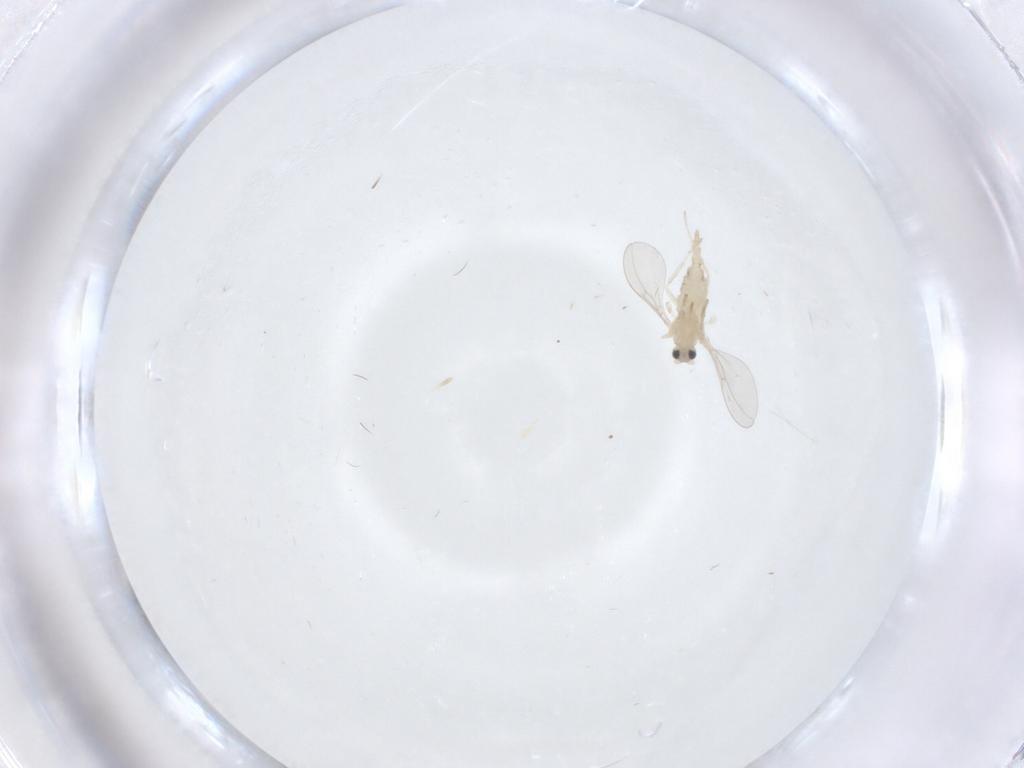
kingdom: Animalia
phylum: Arthropoda
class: Insecta
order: Diptera
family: Cecidomyiidae
